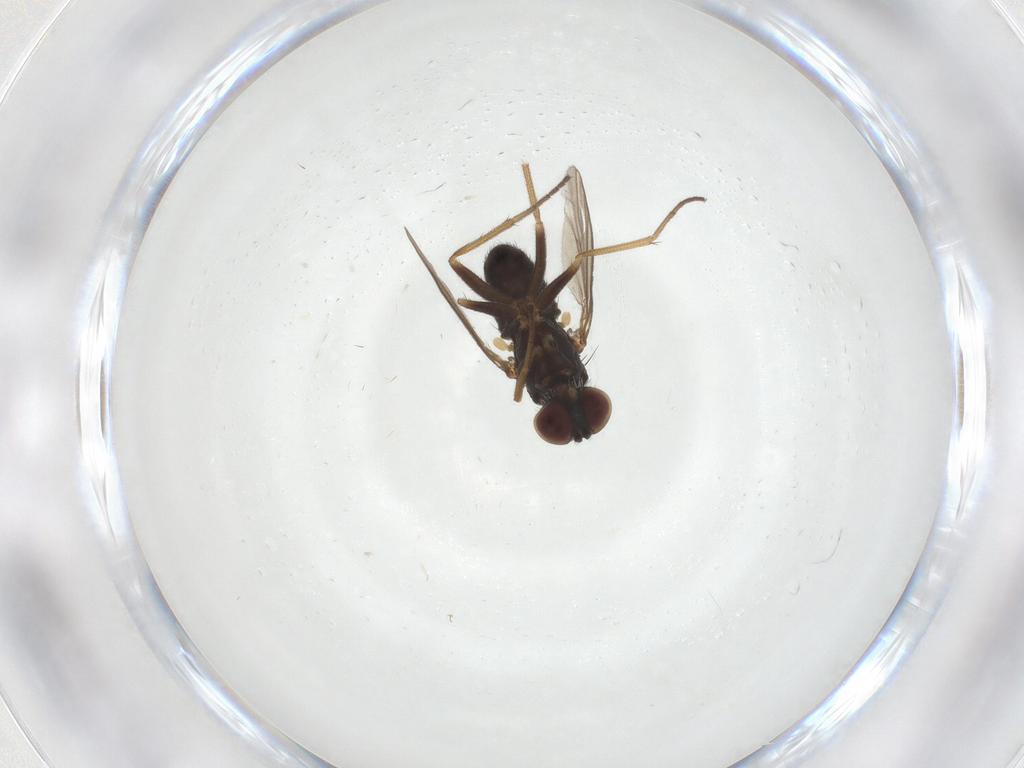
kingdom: Animalia
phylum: Arthropoda
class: Insecta
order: Diptera
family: Dolichopodidae
